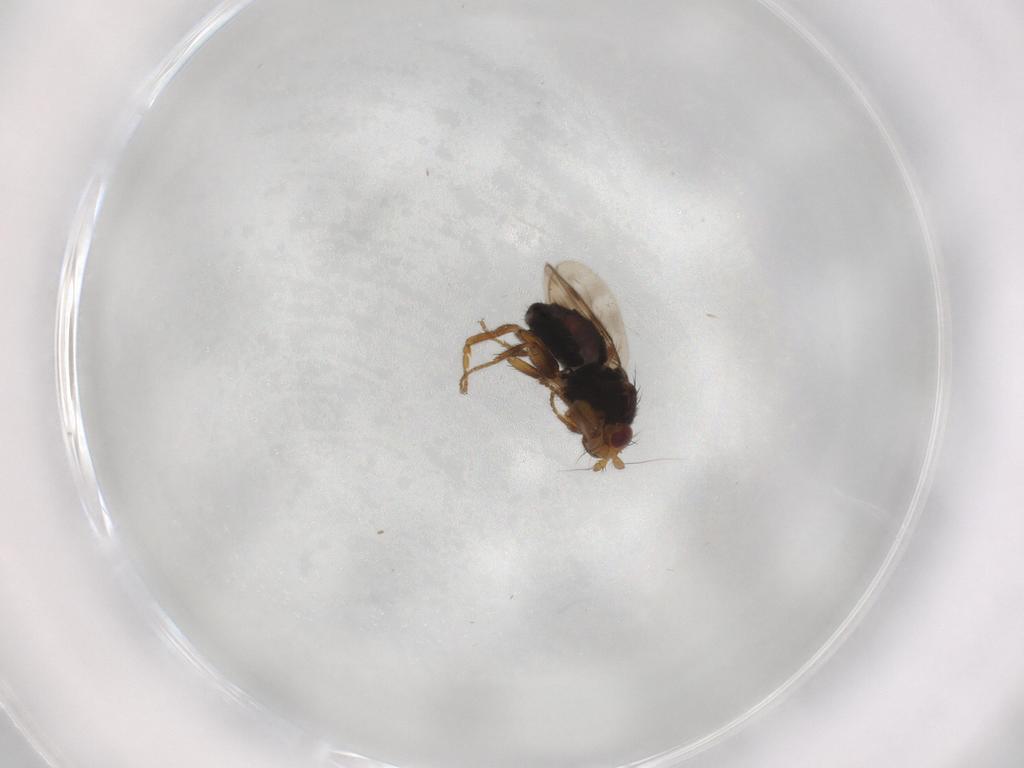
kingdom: Animalia
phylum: Arthropoda
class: Insecta
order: Diptera
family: Sphaeroceridae
